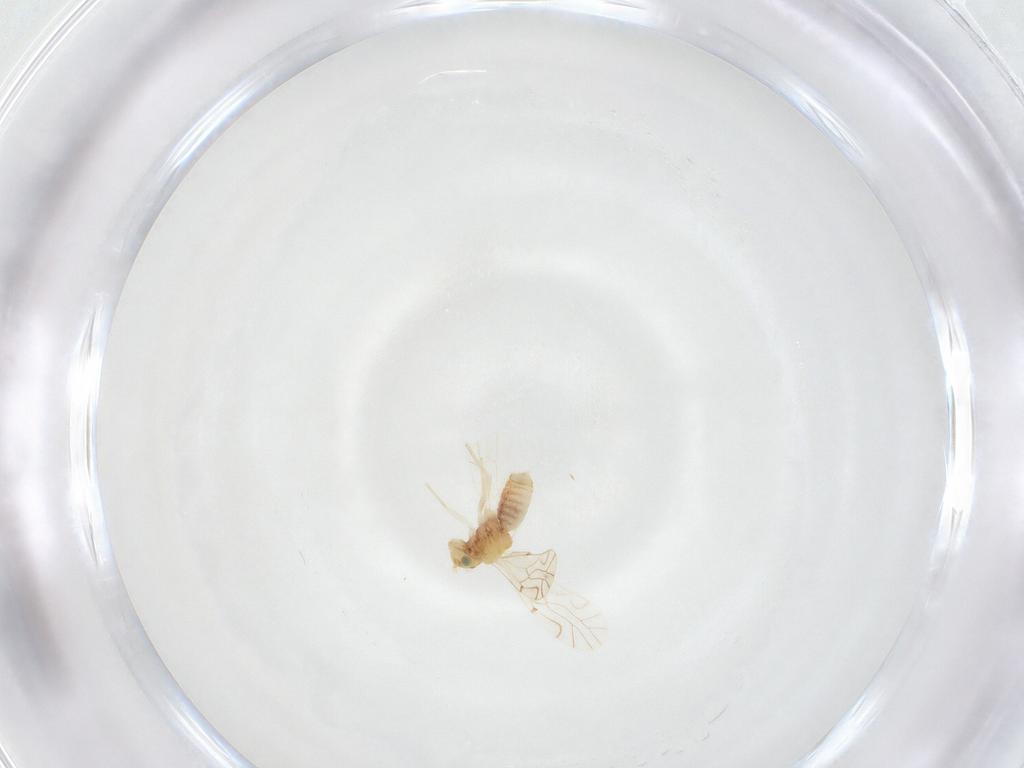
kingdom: Animalia
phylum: Arthropoda
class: Insecta
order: Psocodea
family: Lachesillidae
